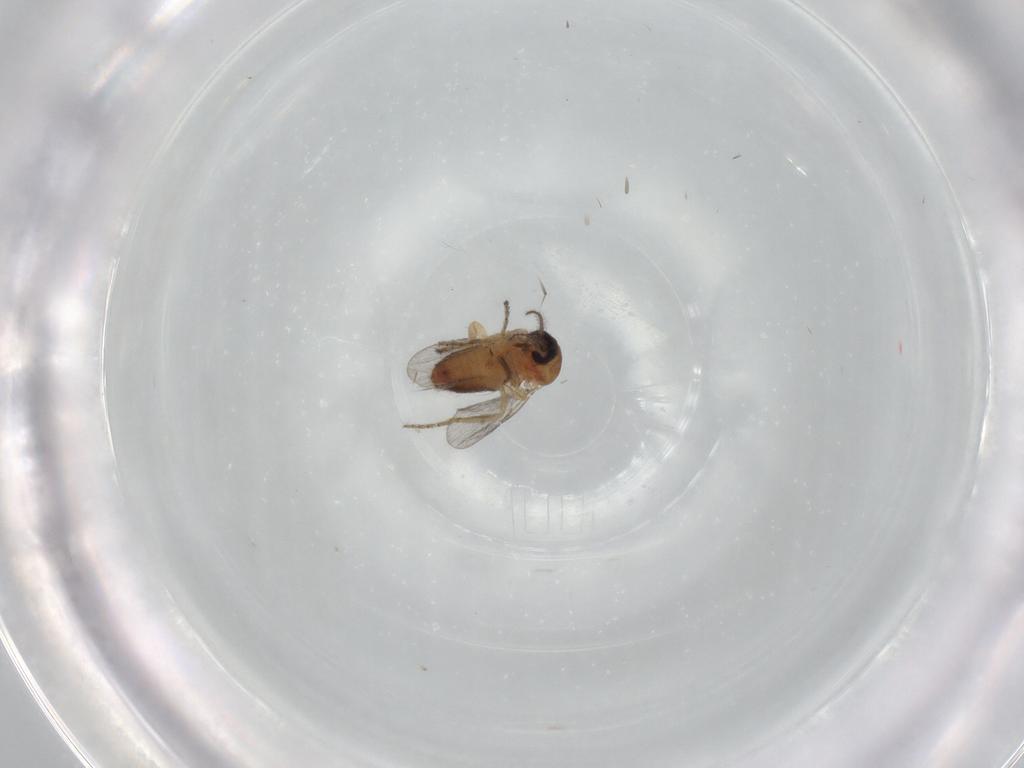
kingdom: Animalia
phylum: Arthropoda
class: Insecta
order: Diptera
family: Ceratopogonidae
